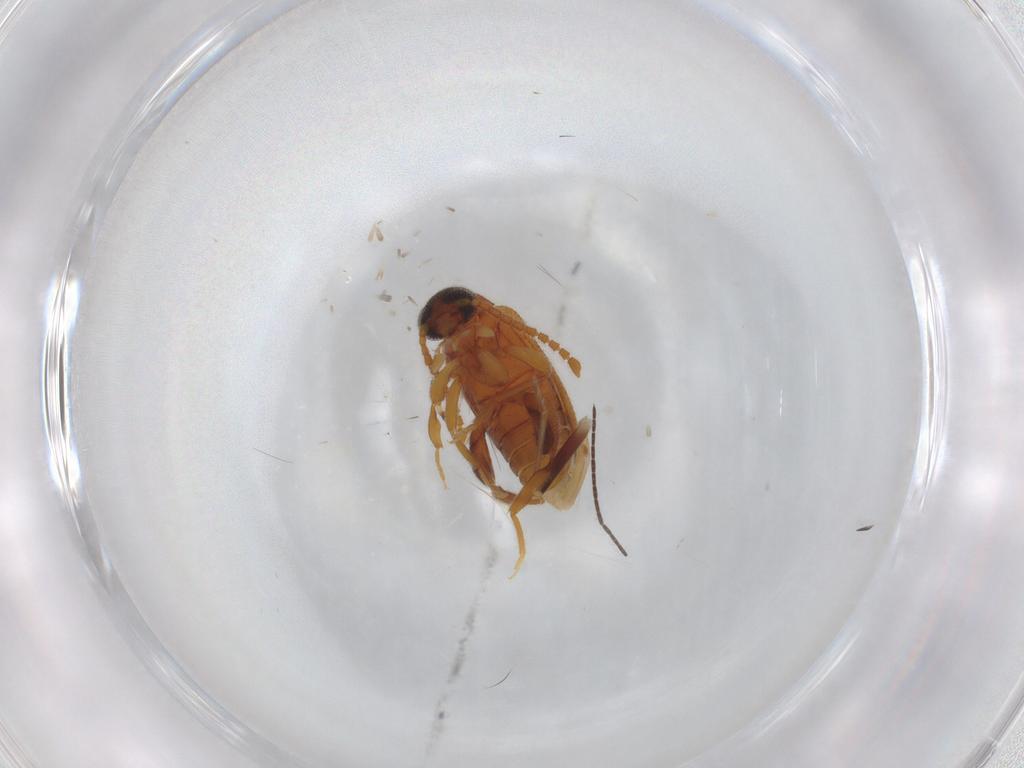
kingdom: Animalia
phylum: Arthropoda
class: Insecta
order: Coleoptera
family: Aderidae
